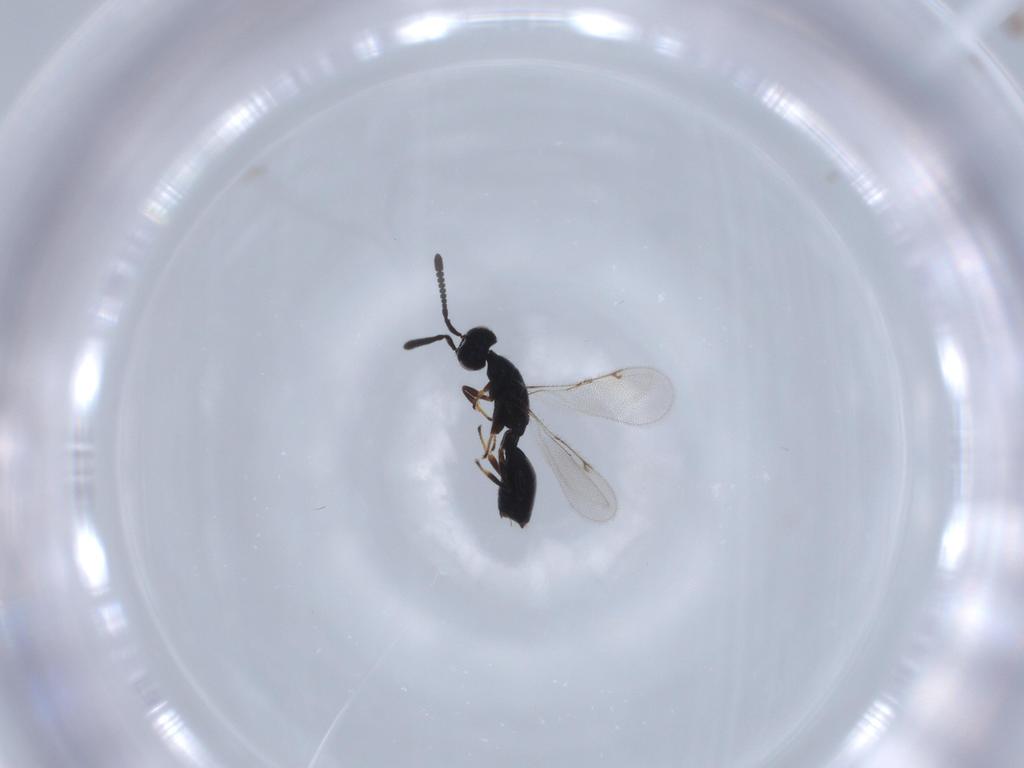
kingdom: Animalia
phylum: Arthropoda
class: Insecta
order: Hymenoptera
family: Spalangiidae
